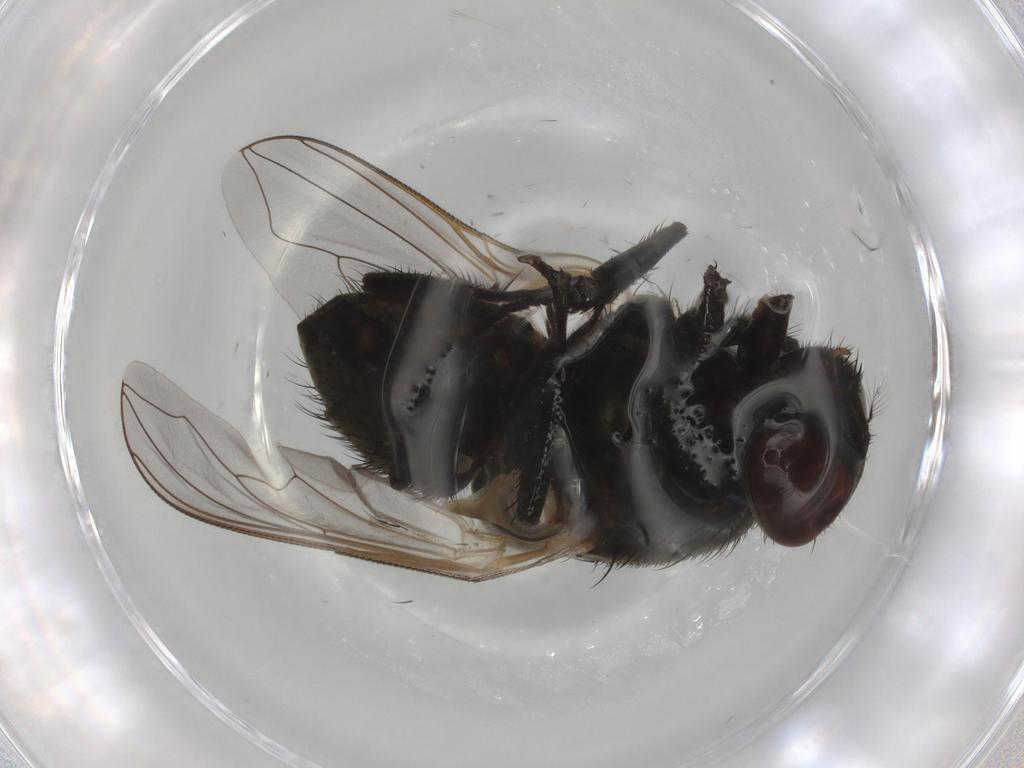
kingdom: Animalia
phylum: Arthropoda
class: Insecta
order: Diptera
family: Muscidae
